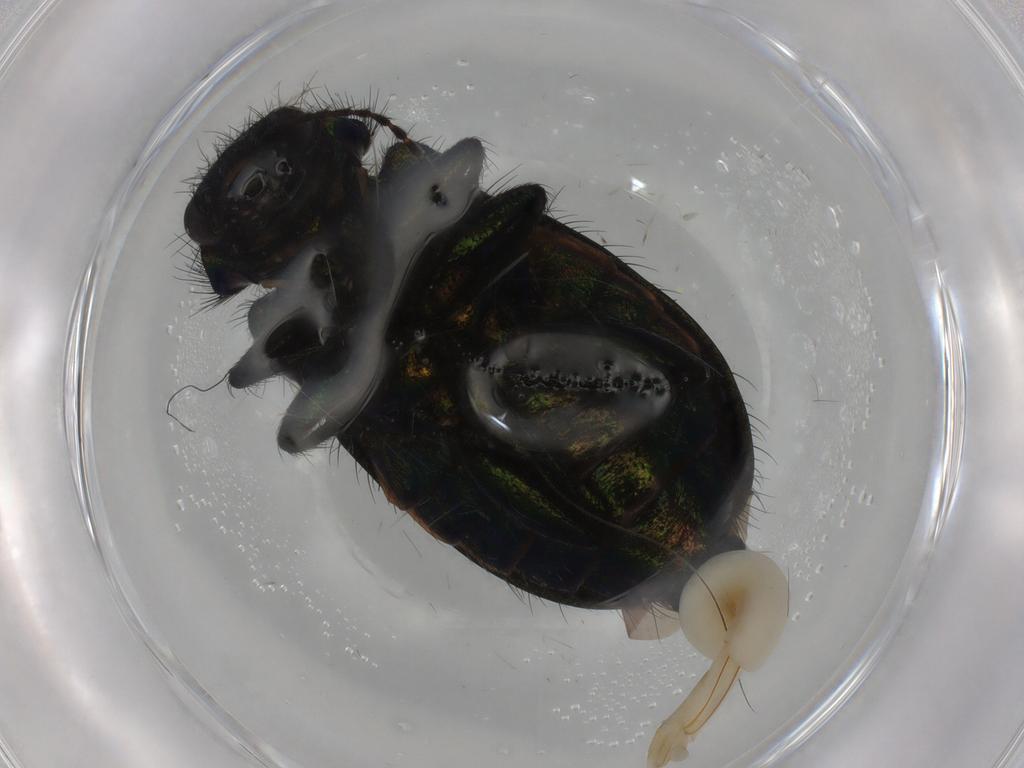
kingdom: Animalia
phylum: Arthropoda
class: Insecta
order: Coleoptera
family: Melyridae
